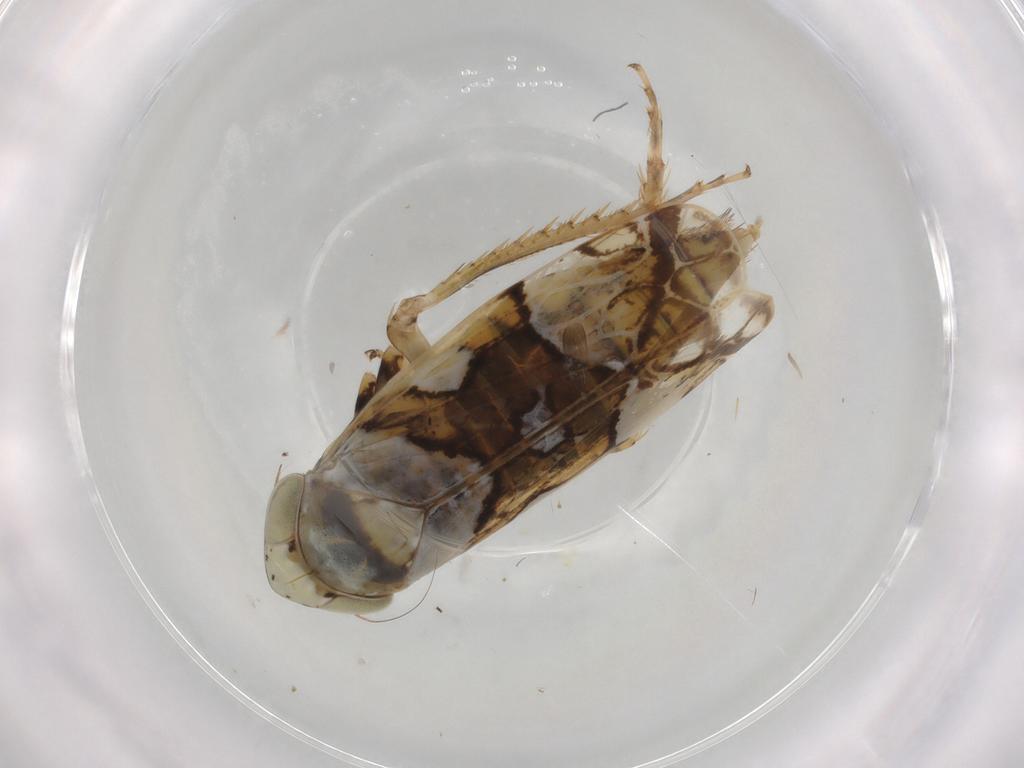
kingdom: Animalia
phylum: Arthropoda
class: Insecta
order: Hemiptera
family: Aphididae
